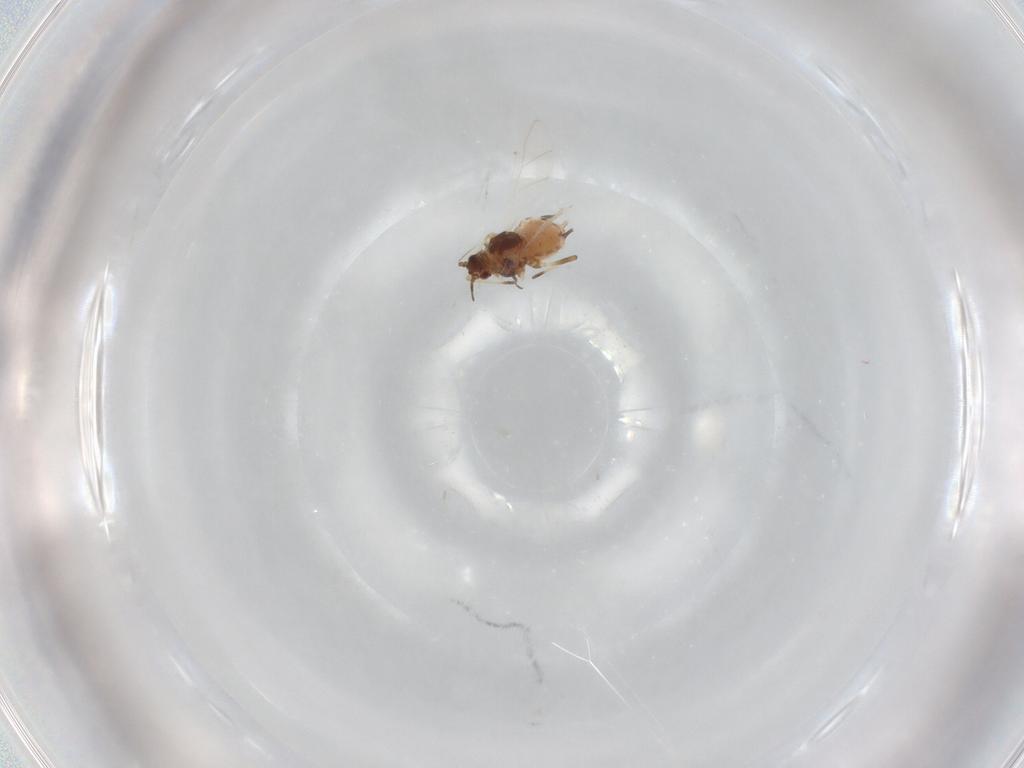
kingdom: Animalia
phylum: Arthropoda
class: Insecta
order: Hemiptera
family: Aphididae
